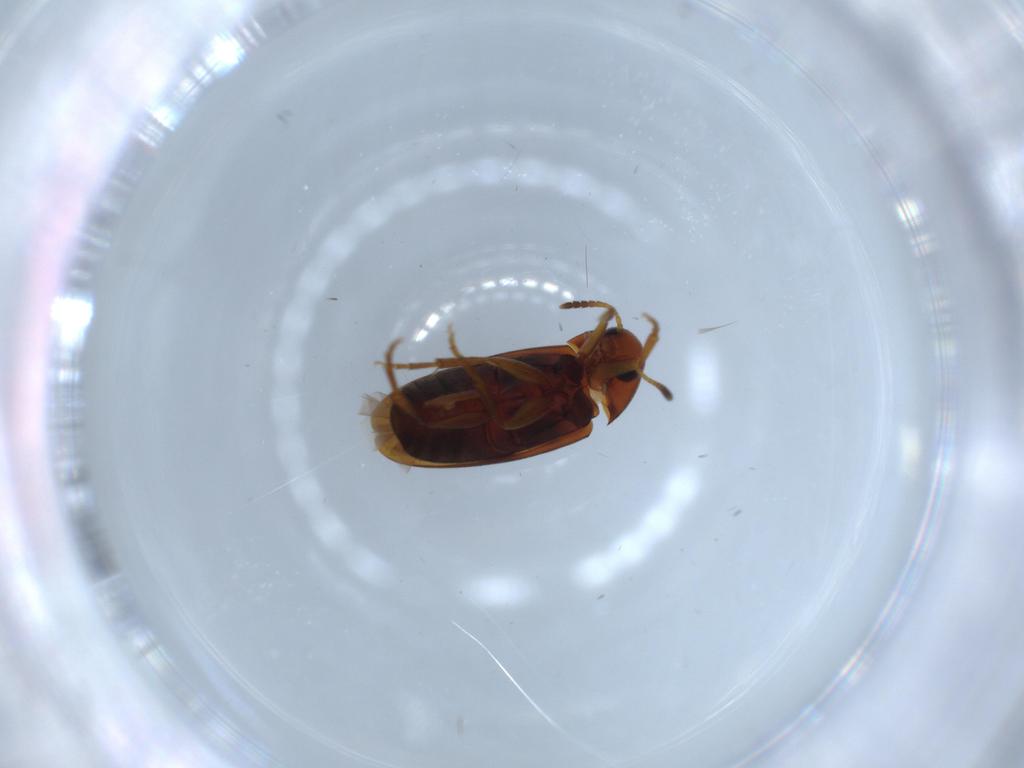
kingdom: Animalia
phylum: Arthropoda
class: Insecta
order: Coleoptera
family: Scraptiidae
